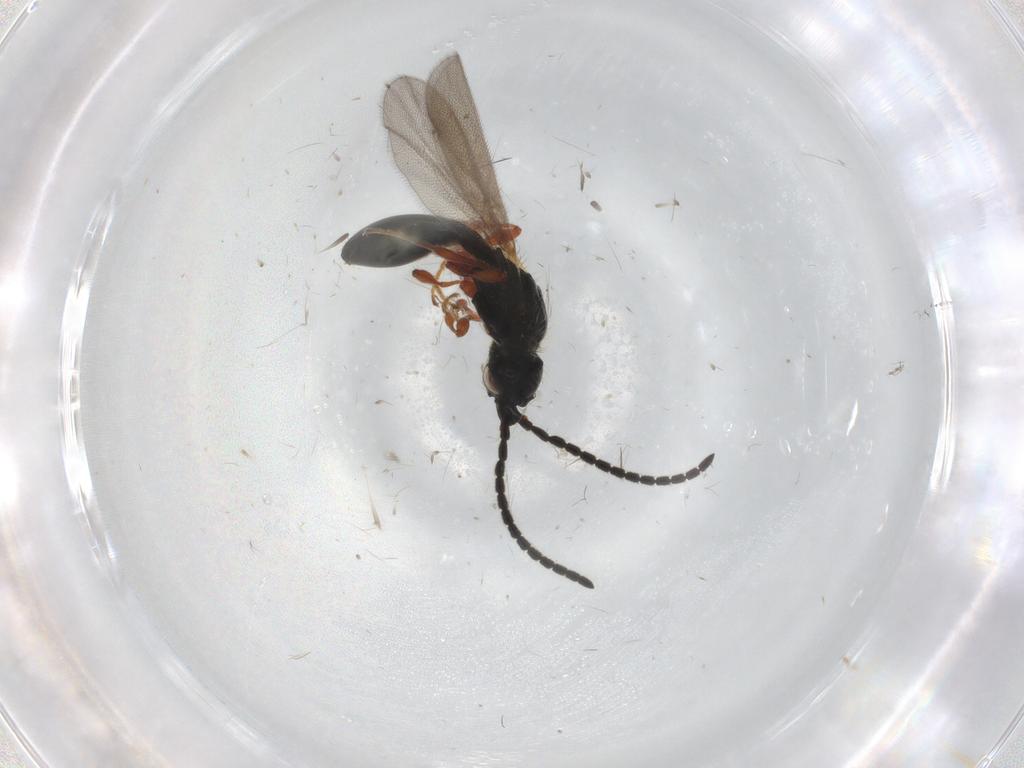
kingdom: Animalia
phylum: Arthropoda
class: Insecta
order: Hymenoptera
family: Diapriidae
